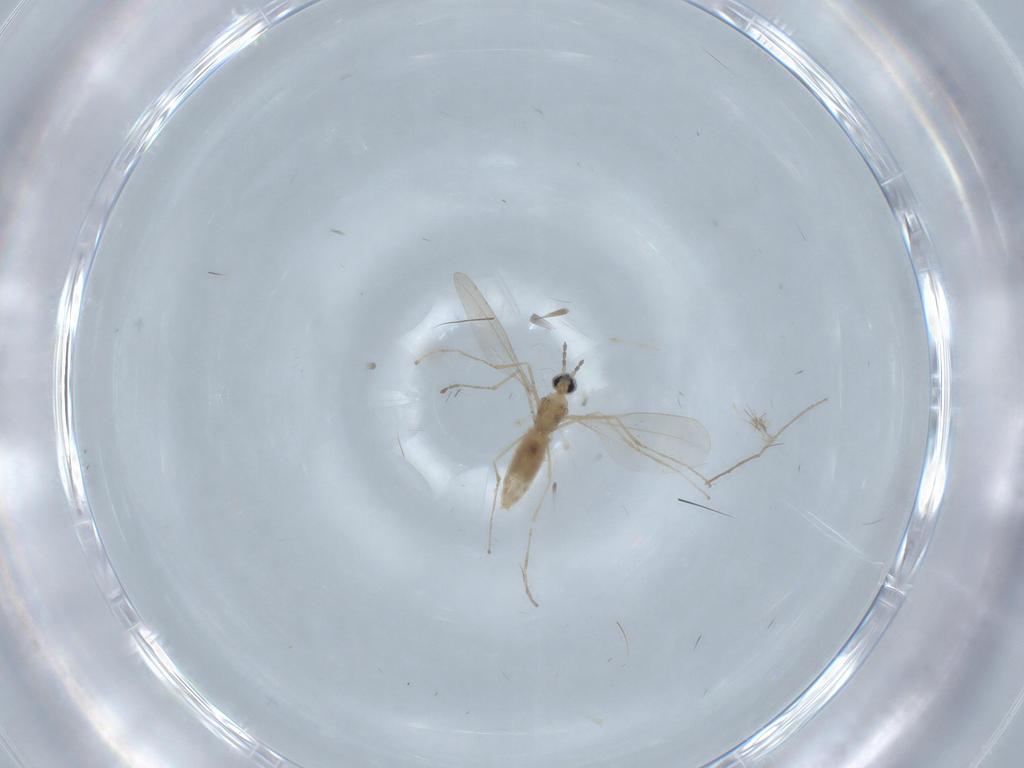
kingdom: Animalia
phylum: Arthropoda
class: Insecta
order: Diptera
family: Chironomidae
